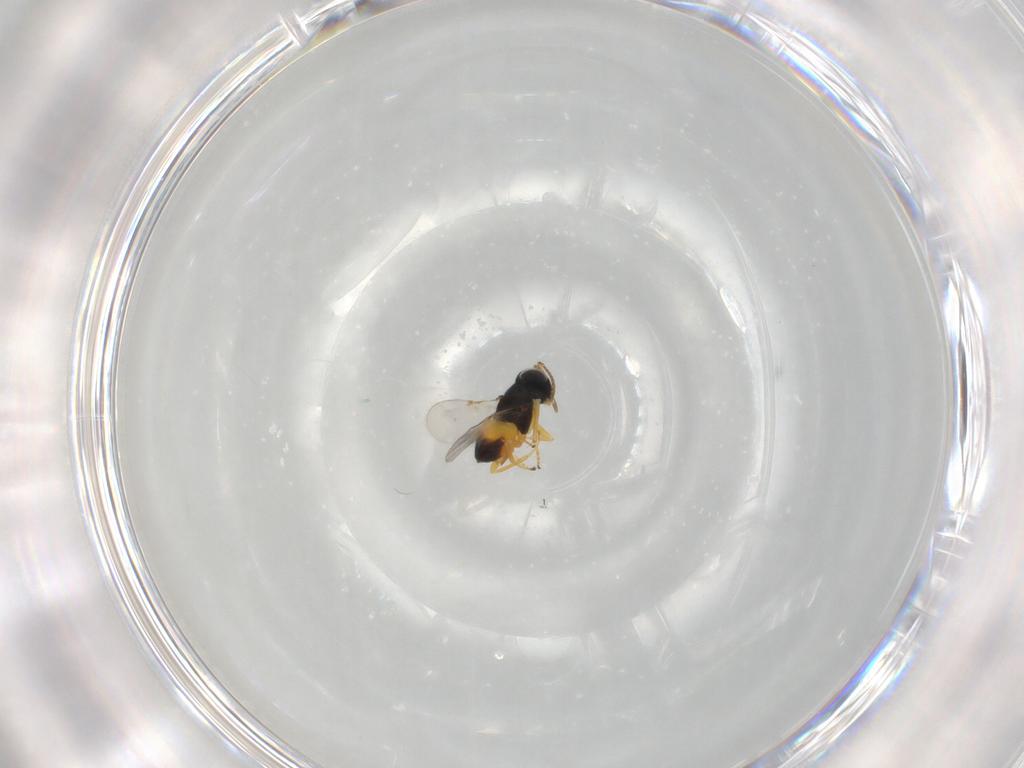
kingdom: Animalia
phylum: Arthropoda
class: Insecta
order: Hymenoptera
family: Encyrtidae
